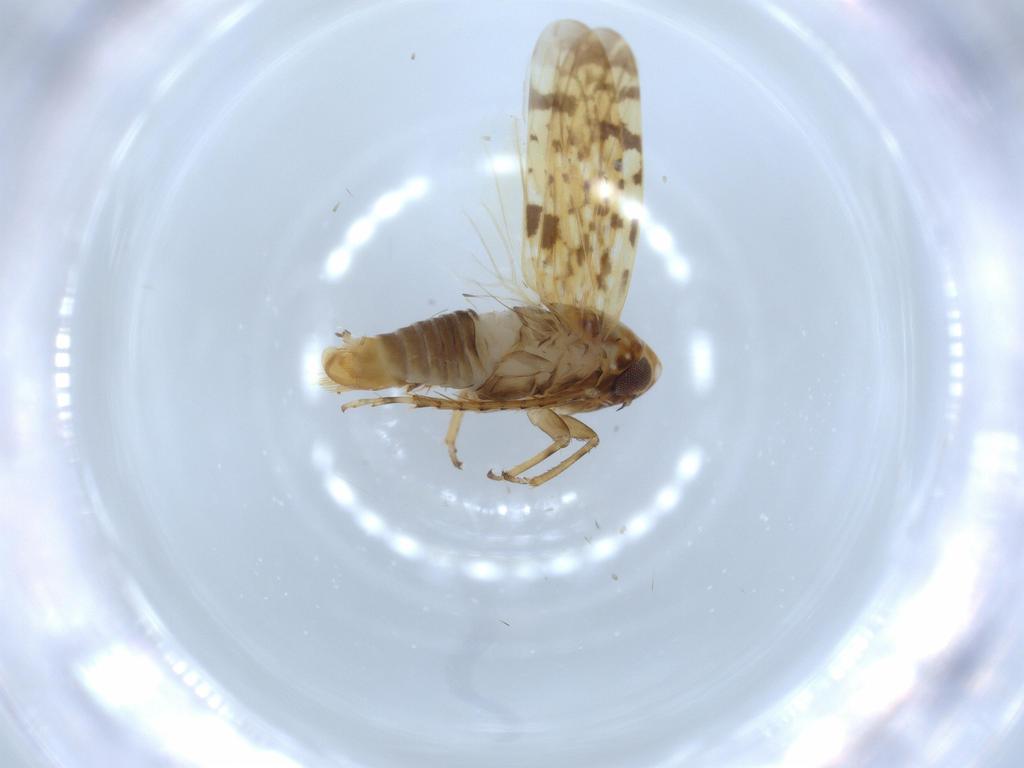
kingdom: Animalia
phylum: Arthropoda
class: Insecta
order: Hemiptera
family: Cicadellidae
